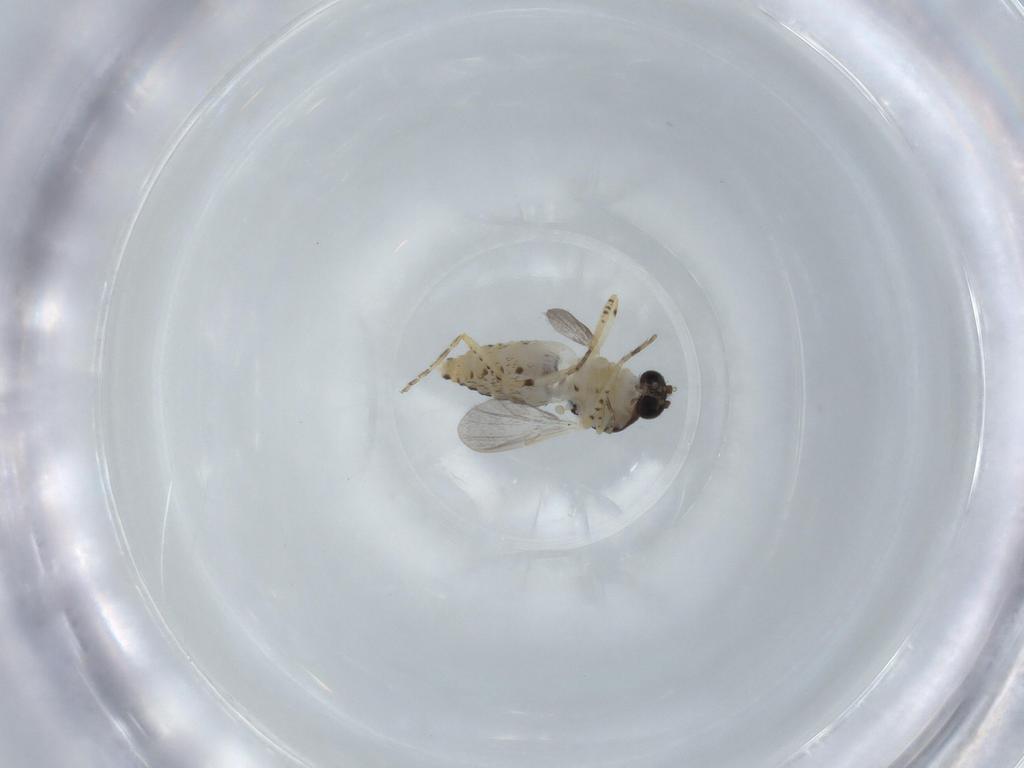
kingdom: Animalia
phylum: Arthropoda
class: Insecta
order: Diptera
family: Ceratopogonidae
